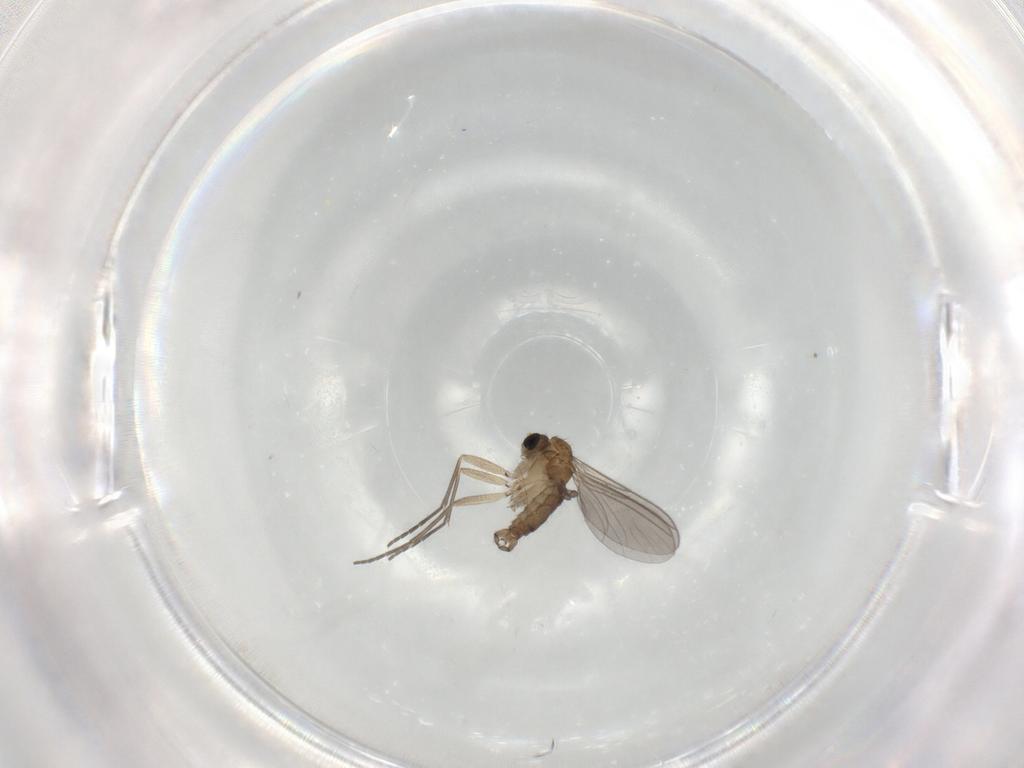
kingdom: Animalia
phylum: Arthropoda
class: Insecta
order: Diptera
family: Sciaridae
